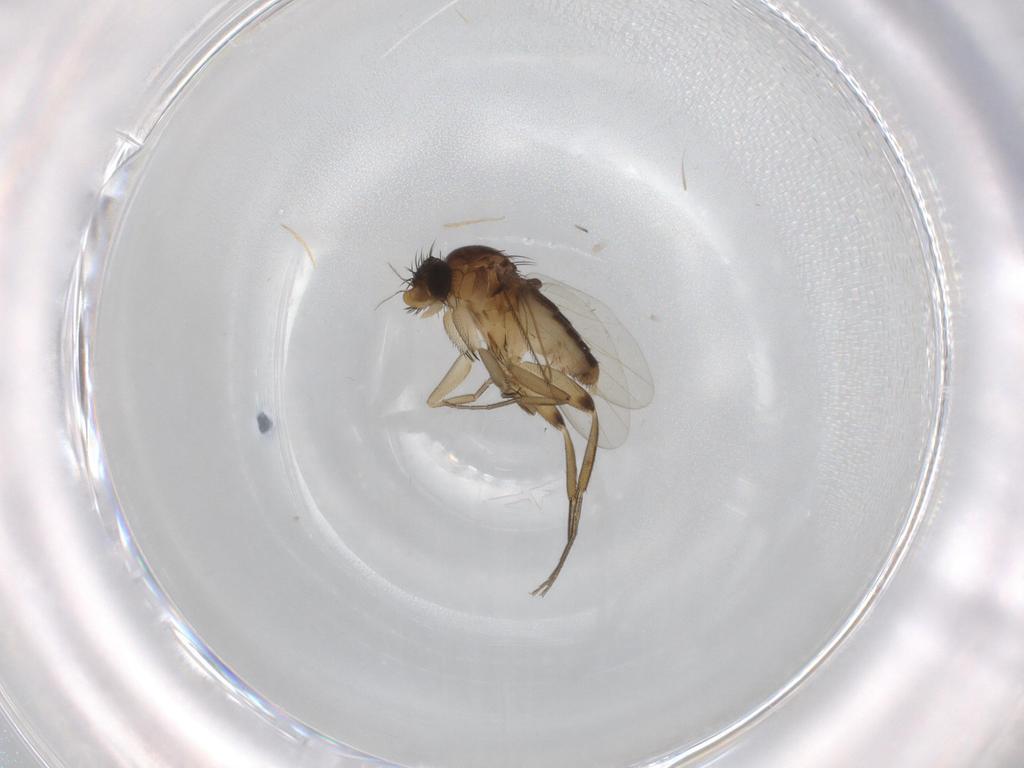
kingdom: Animalia
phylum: Arthropoda
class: Insecta
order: Diptera
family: Phoridae
